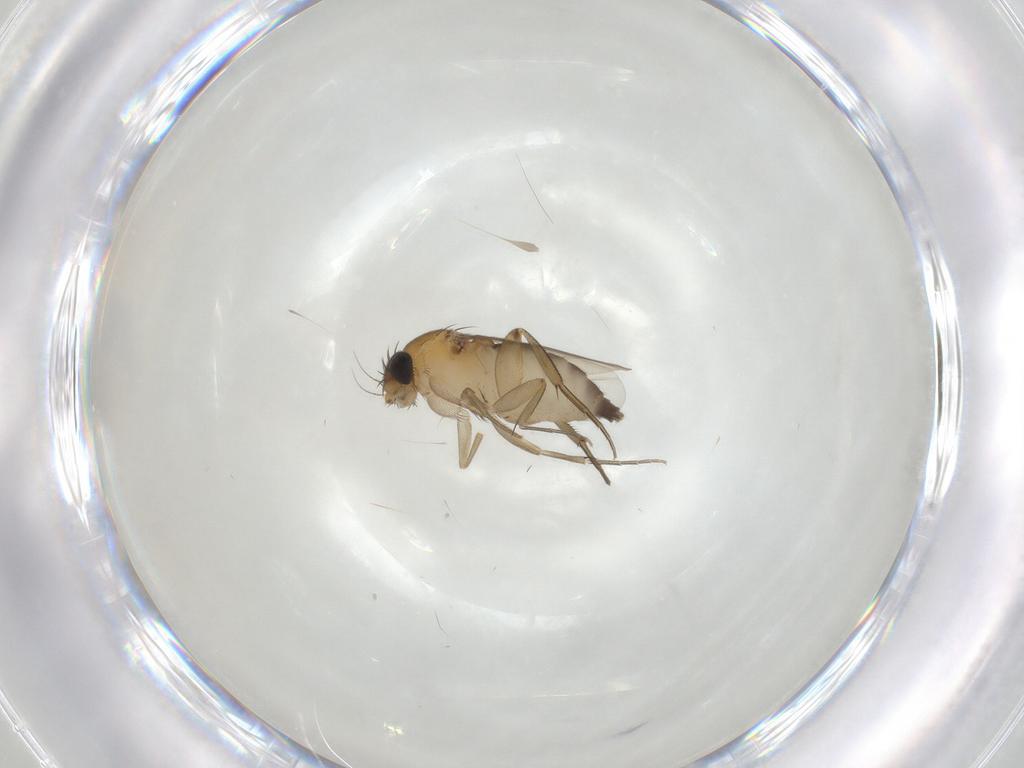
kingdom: Animalia
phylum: Arthropoda
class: Insecta
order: Diptera
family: Phoridae
